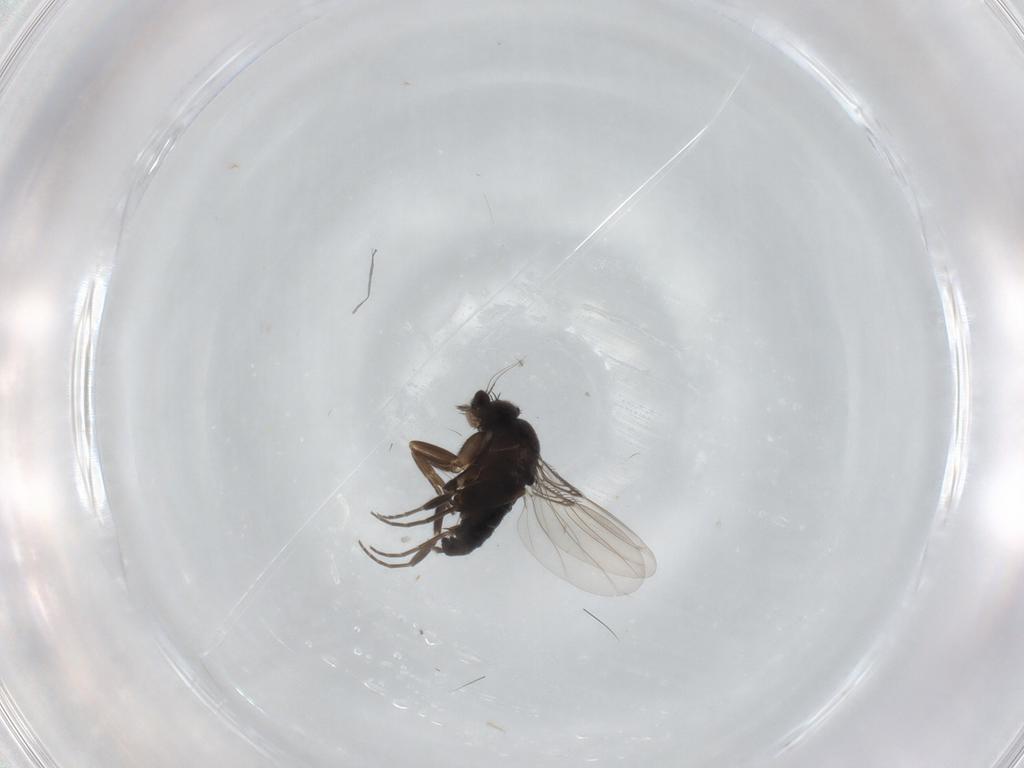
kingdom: Animalia
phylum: Arthropoda
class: Insecta
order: Diptera
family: Phoridae
